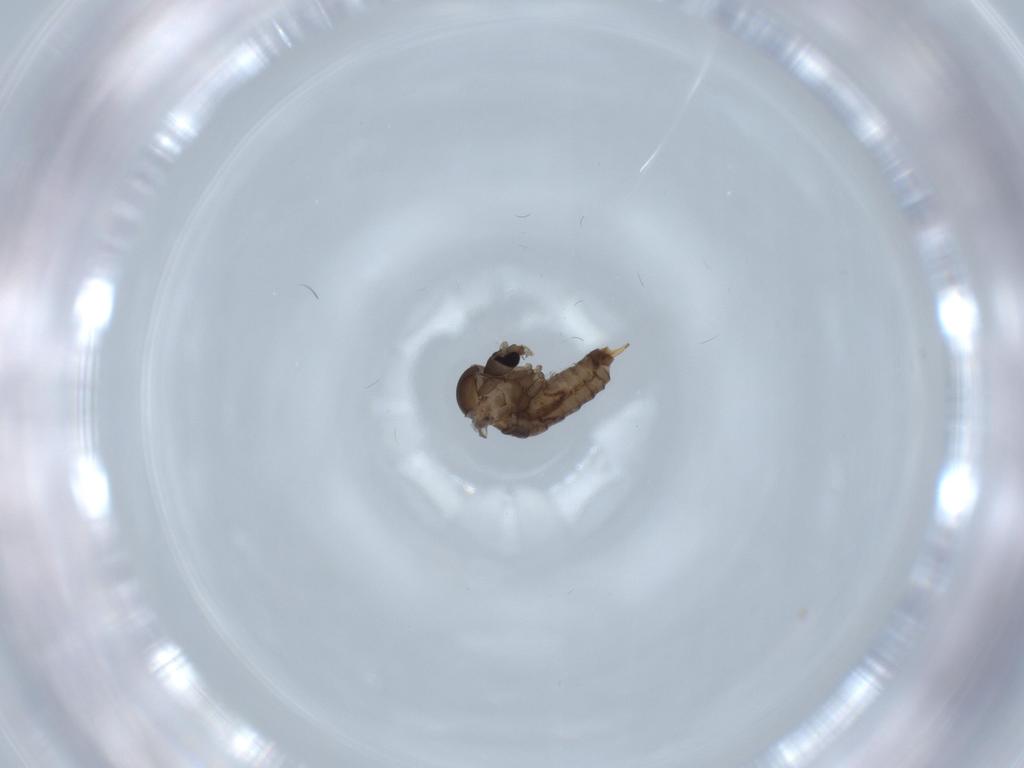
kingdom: Animalia
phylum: Arthropoda
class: Insecta
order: Diptera
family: Psychodidae
